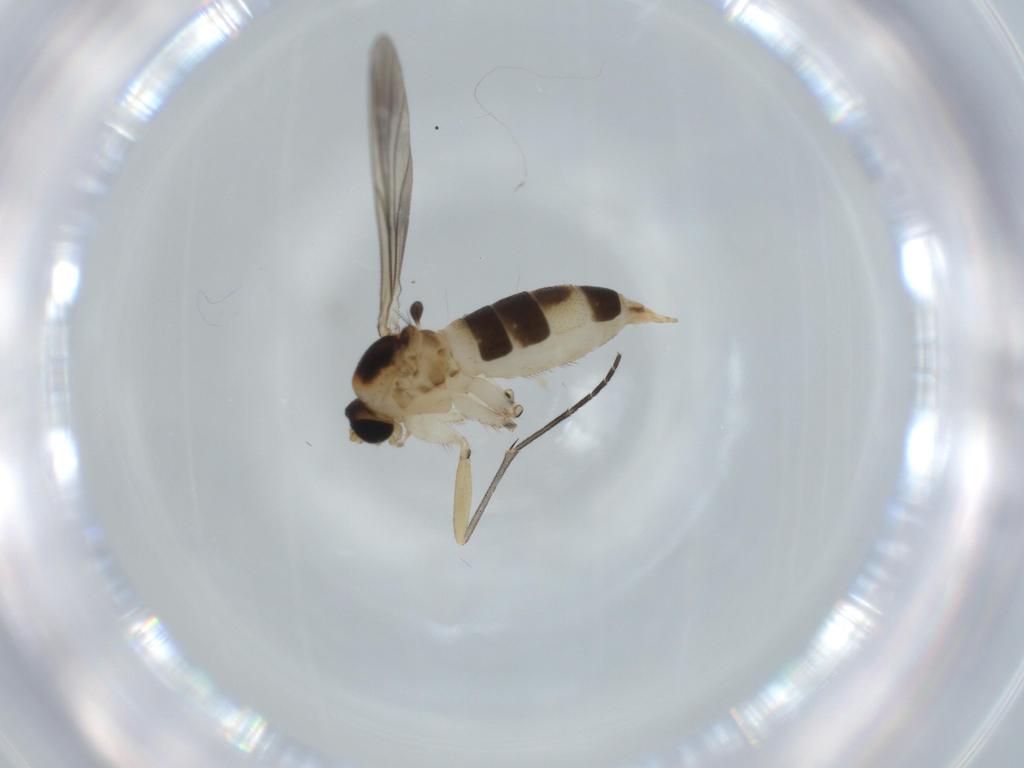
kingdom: Animalia
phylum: Arthropoda
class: Insecta
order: Diptera
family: Sciaridae
